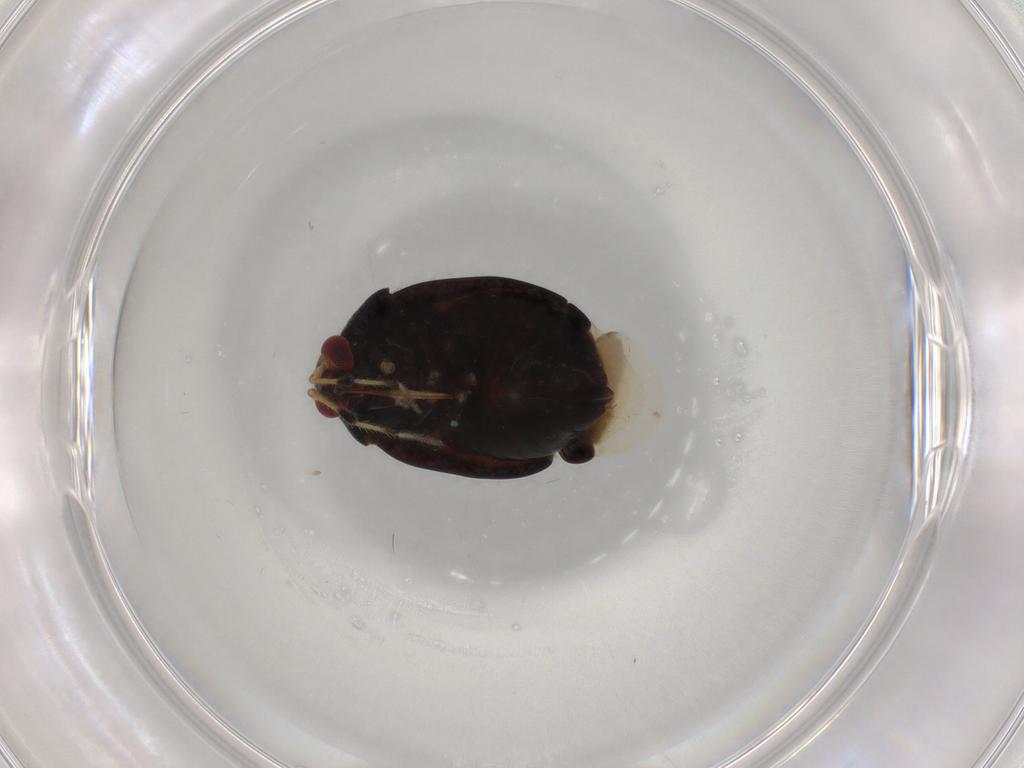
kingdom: Animalia
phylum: Arthropoda
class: Insecta
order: Hemiptera
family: Miridae
